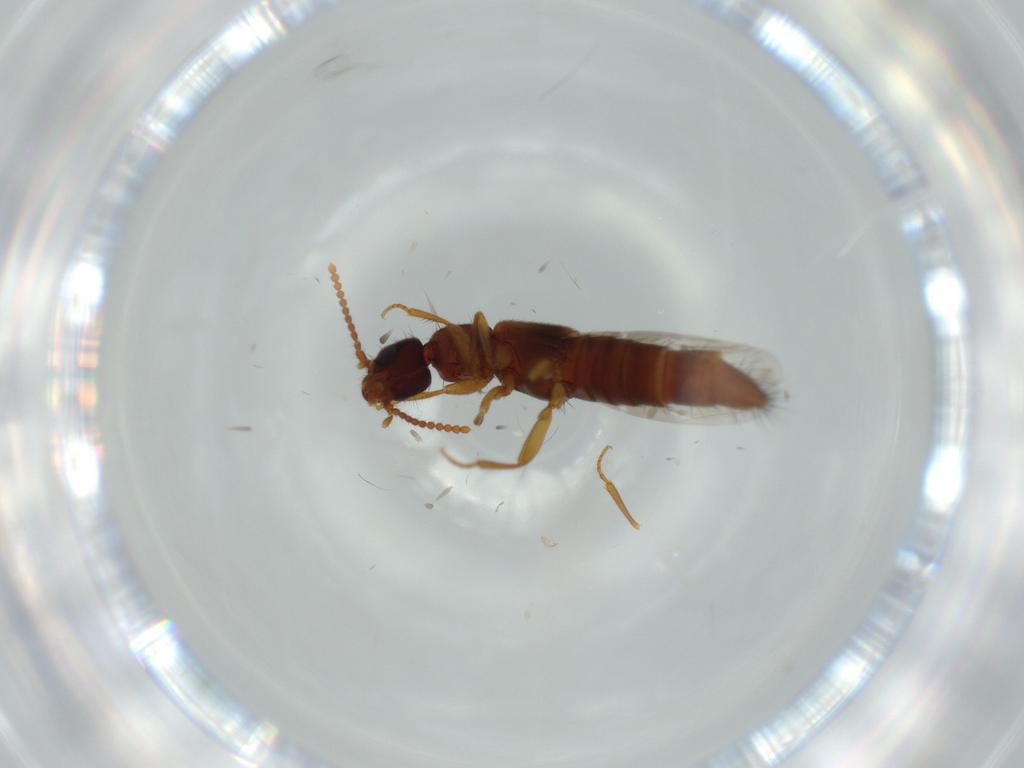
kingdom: Animalia
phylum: Arthropoda
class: Insecta
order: Coleoptera
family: Staphylinidae
